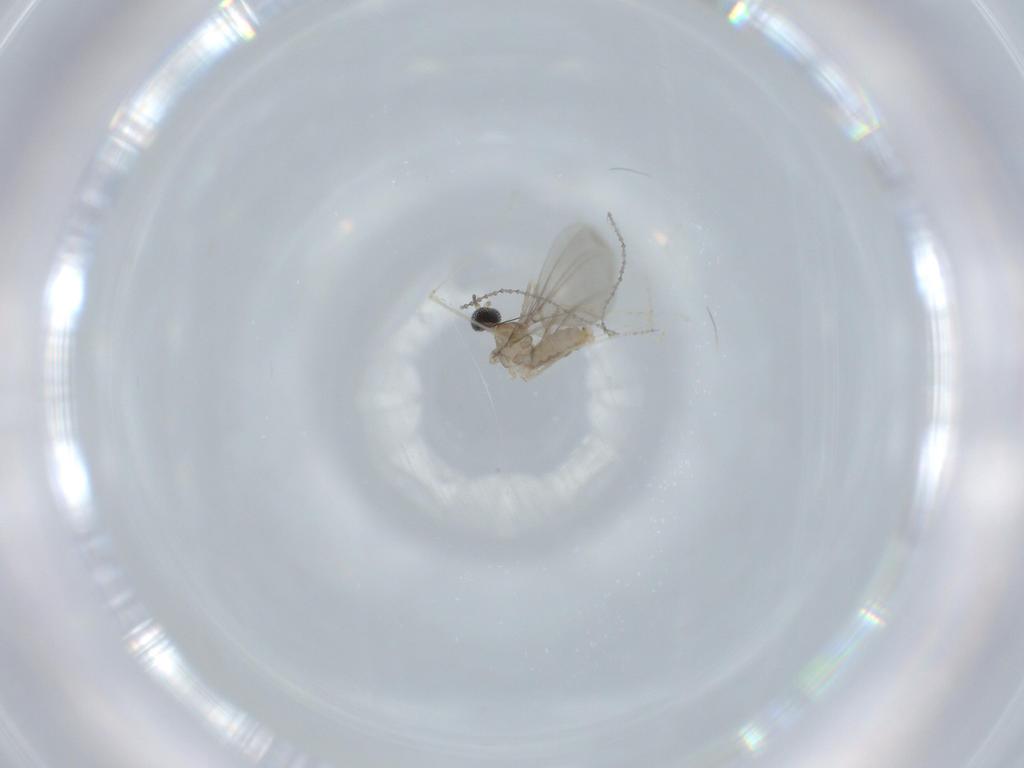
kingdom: Animalia
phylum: Arthropoda
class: Insecta
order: Diptera
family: Cecidomyiidae
